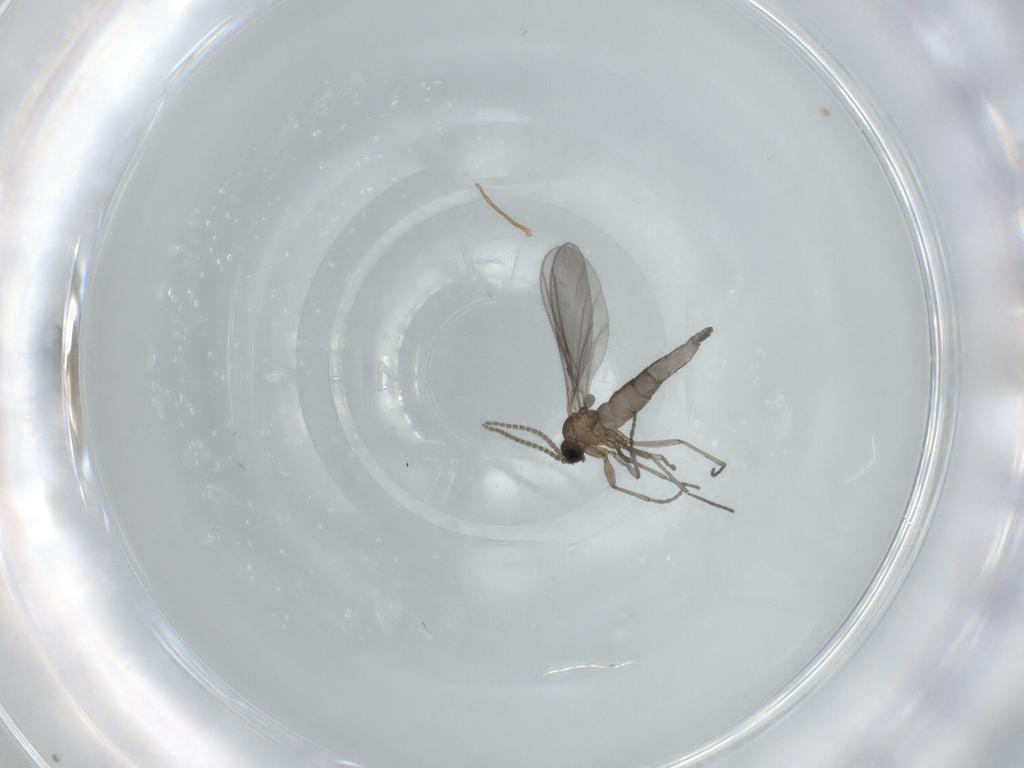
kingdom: Animalia
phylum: Arthropoda
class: Insecta
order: Diptera
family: Sciaridae
